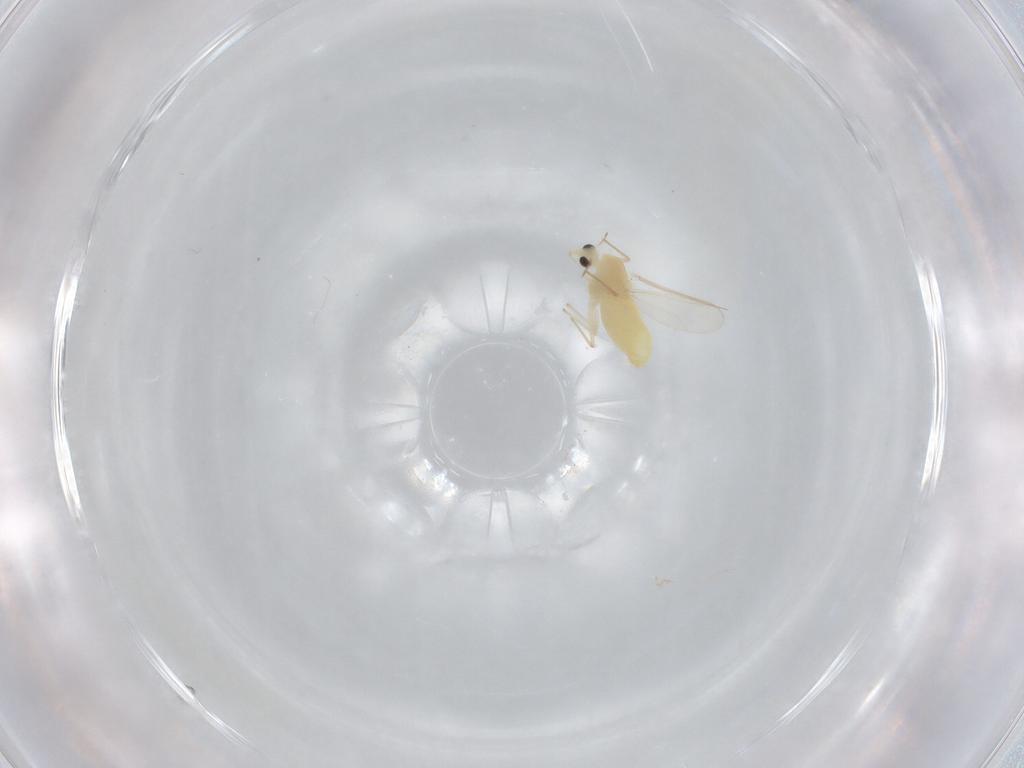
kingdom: Animalia
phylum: Arthropoda
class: Insecta
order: Diptera
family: Chironomidae
